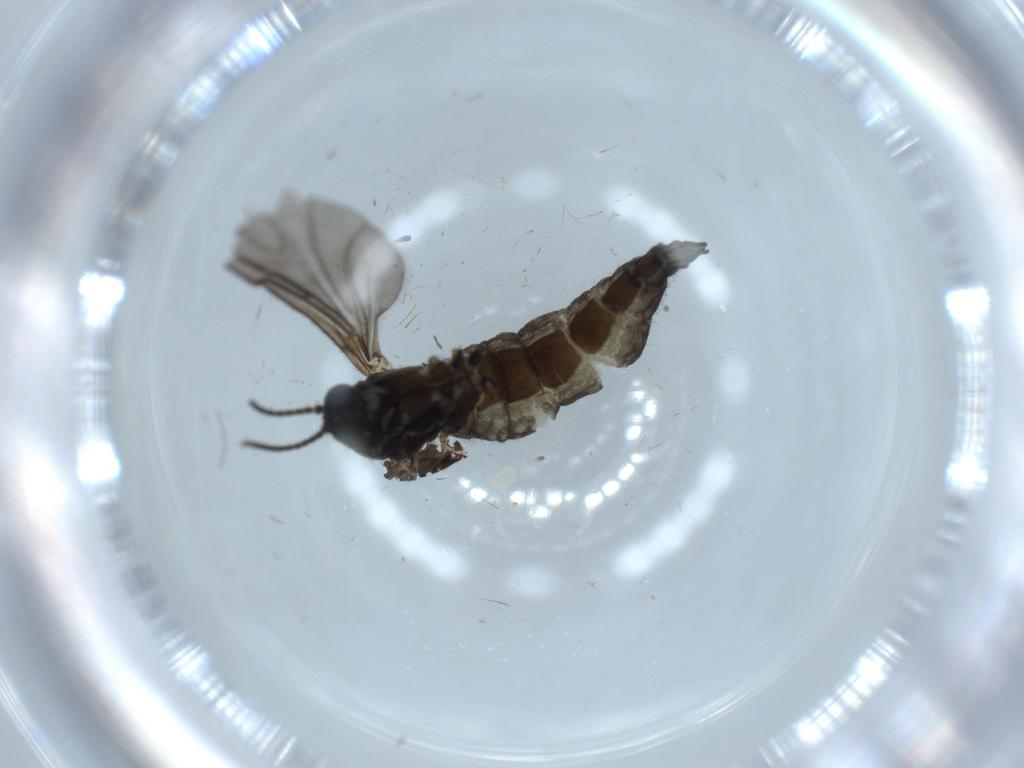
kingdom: Animalia
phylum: Arthropoda
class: Insecta
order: Diptera
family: Sciaridae
